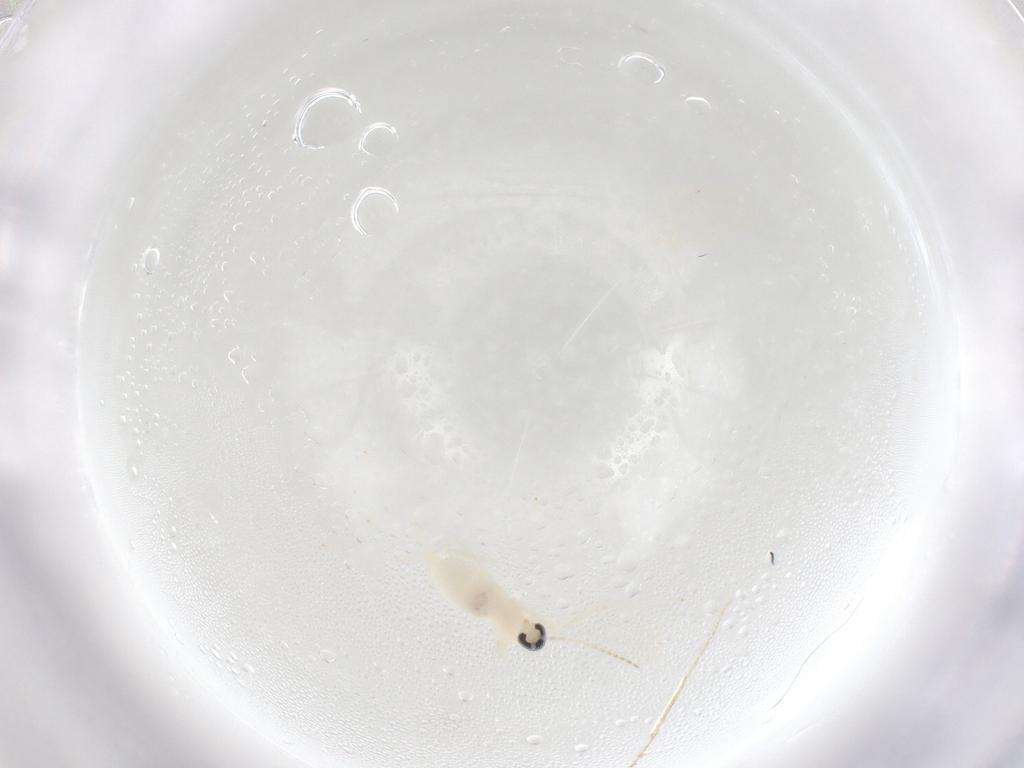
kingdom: Animalia
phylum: Arthropoda
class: Insecta
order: Diptera
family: Cecidomyiidae
